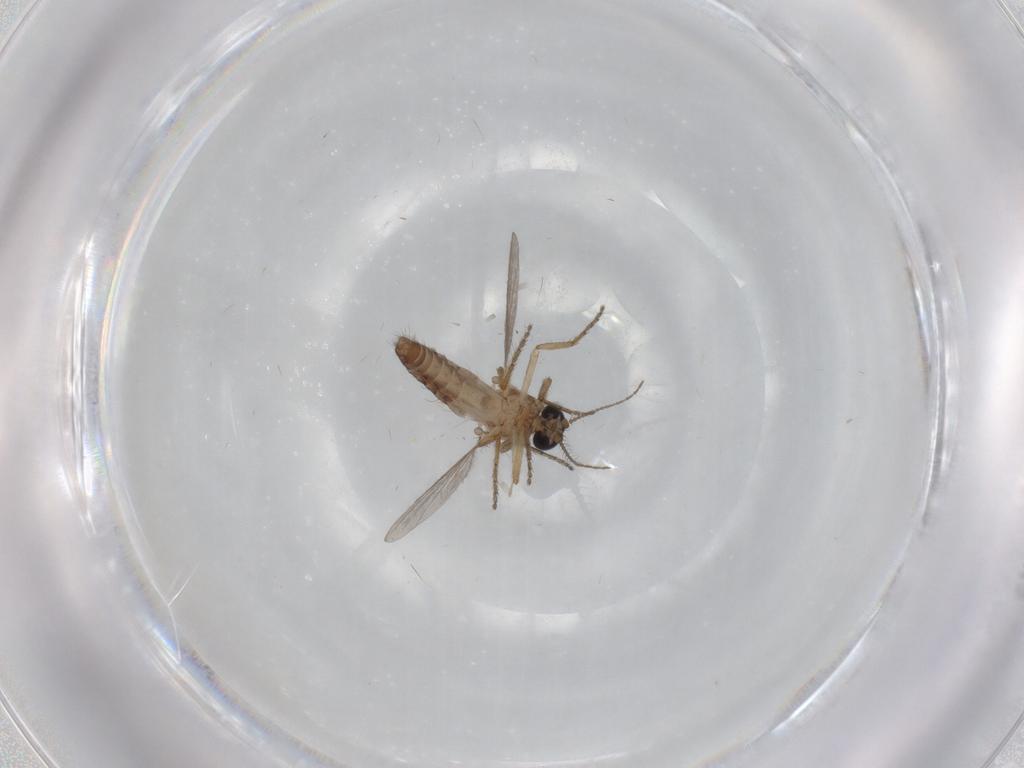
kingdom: Animalia
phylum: Arthropoda
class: Insecta
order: Diptera
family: Ceratopogonidae
